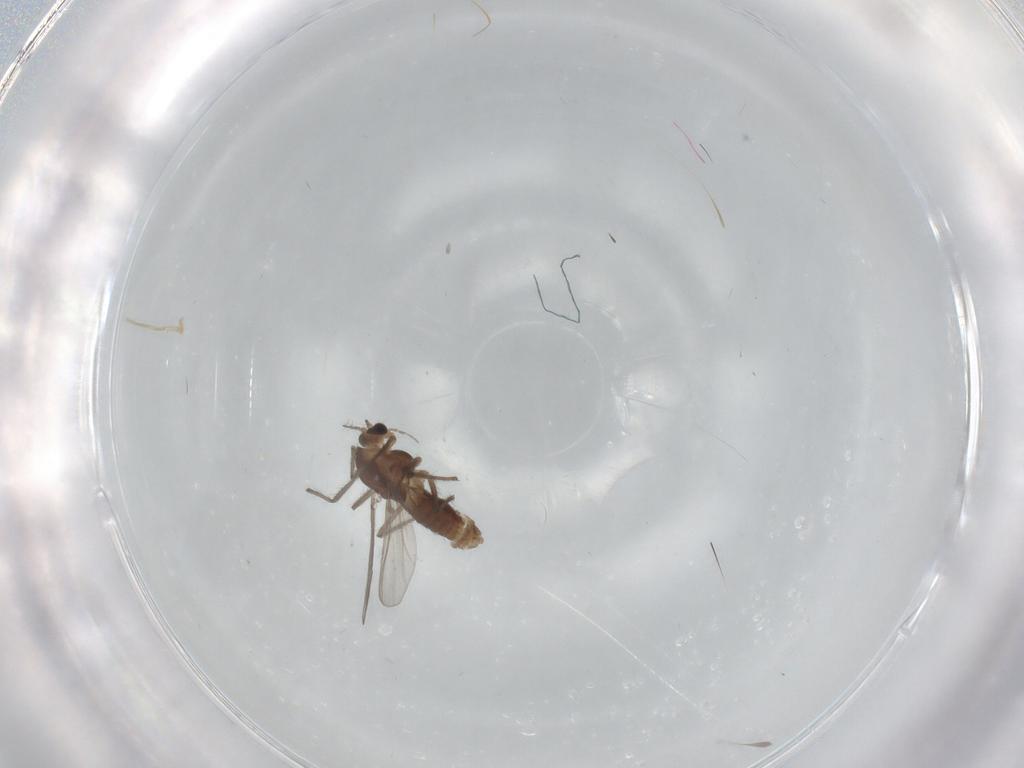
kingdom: Animalia
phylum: Arthropoda
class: Insecta
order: Diptera
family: Chironomidae
